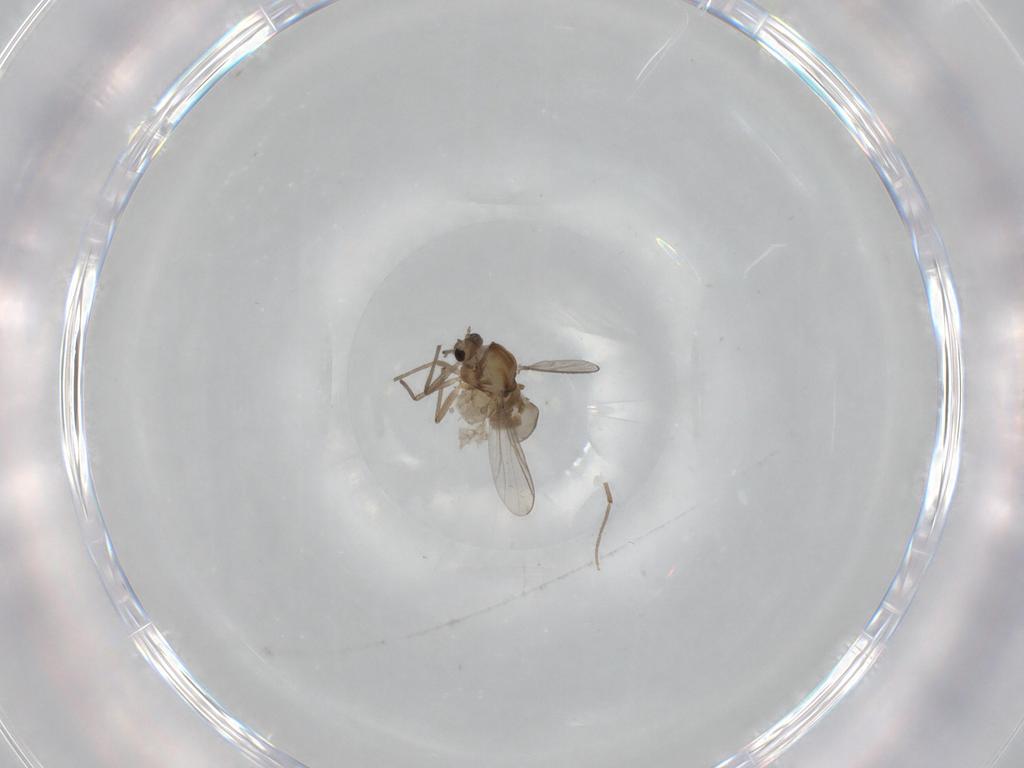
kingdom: Animalia
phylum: Arthropoda
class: Insecta
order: Diptera
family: Chironomidae
